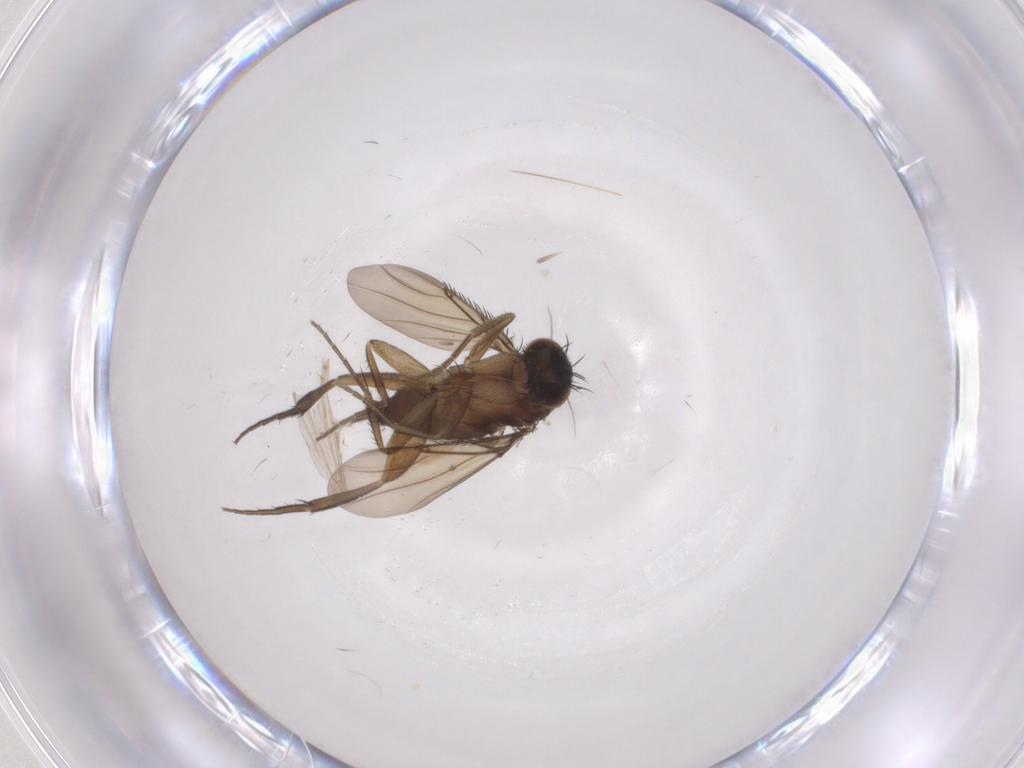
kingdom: Animalia
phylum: Arthropoda
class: Insecta
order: Diptera
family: Phoridae
